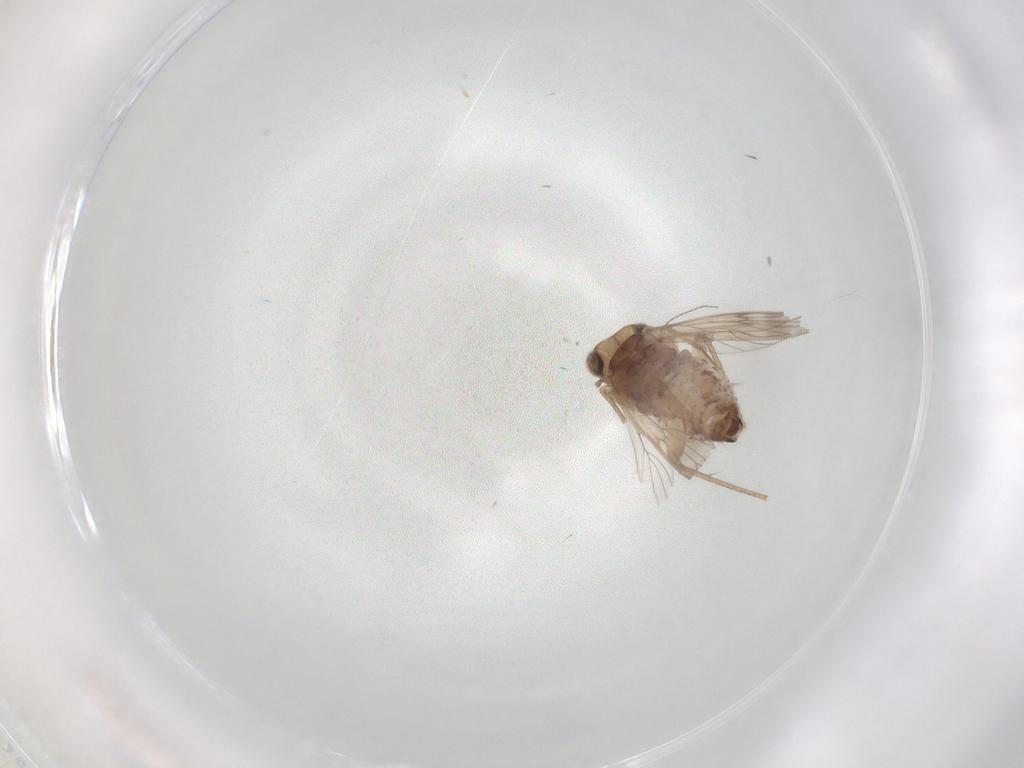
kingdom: Animalia
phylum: Arthropoda
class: Insecta
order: Psocodea
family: Lepidopsocidae
